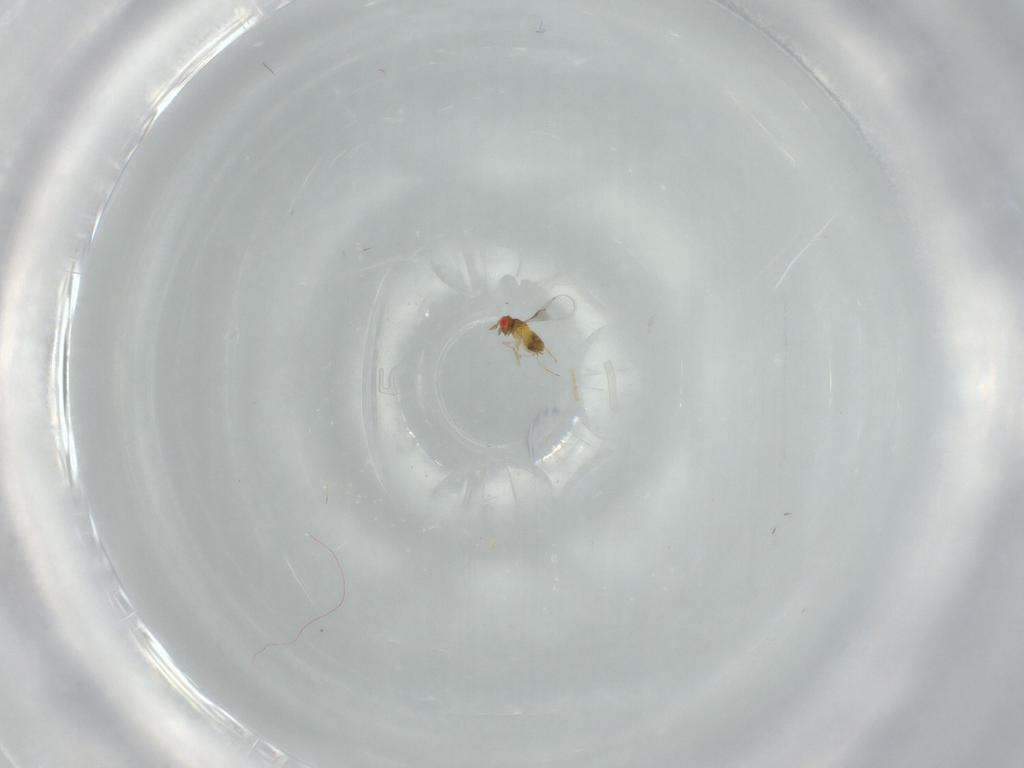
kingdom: Animalia
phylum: Arthropoda
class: Insecta
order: Hymenoptera
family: Trichogrammatidae
